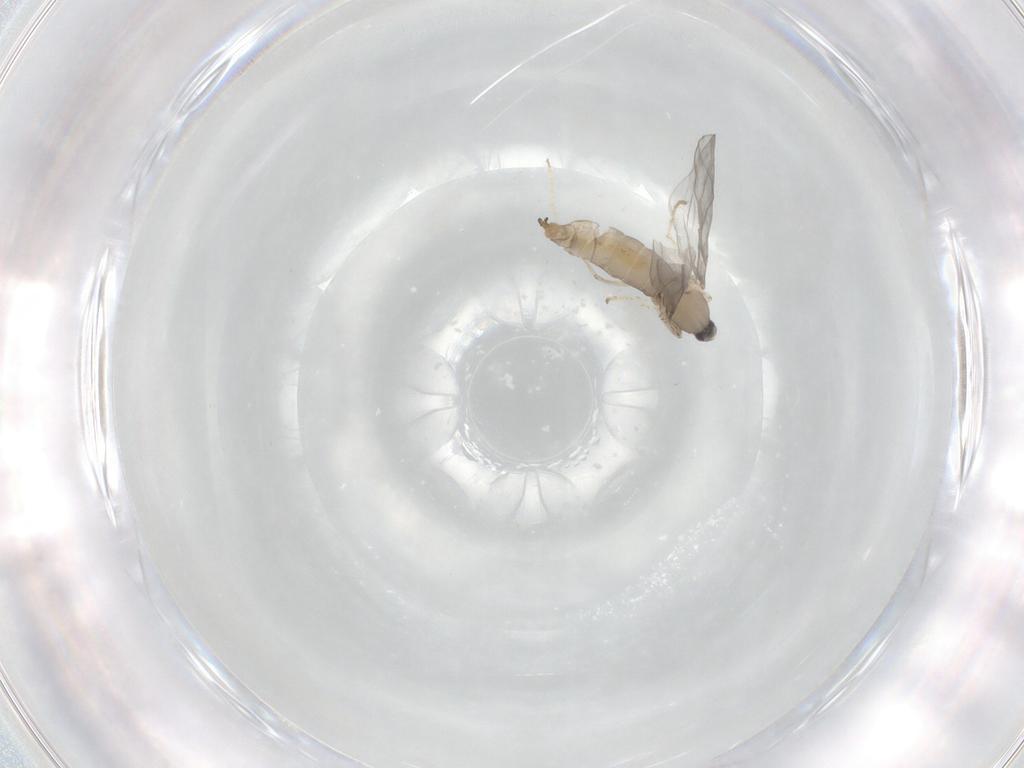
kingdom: Animalia
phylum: Arthropoda
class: Insecta
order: Diptera
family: Cecidomyiidae
